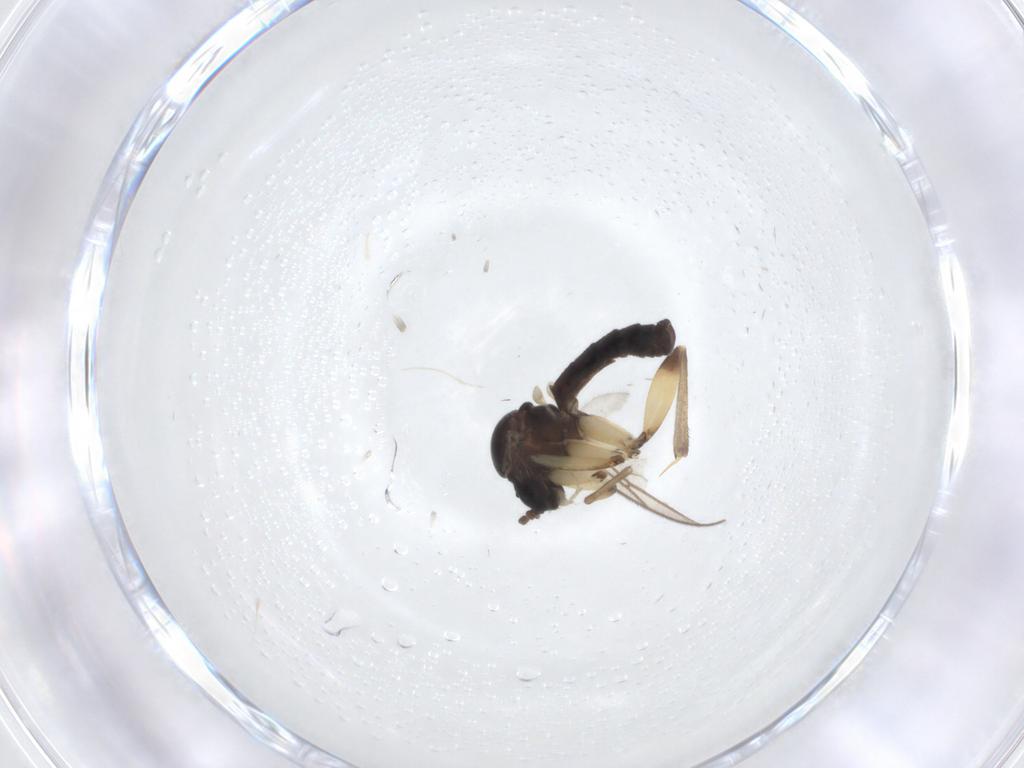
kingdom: Animalia
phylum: Arthropoda
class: Insecta
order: Diptera
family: Chironomidae
